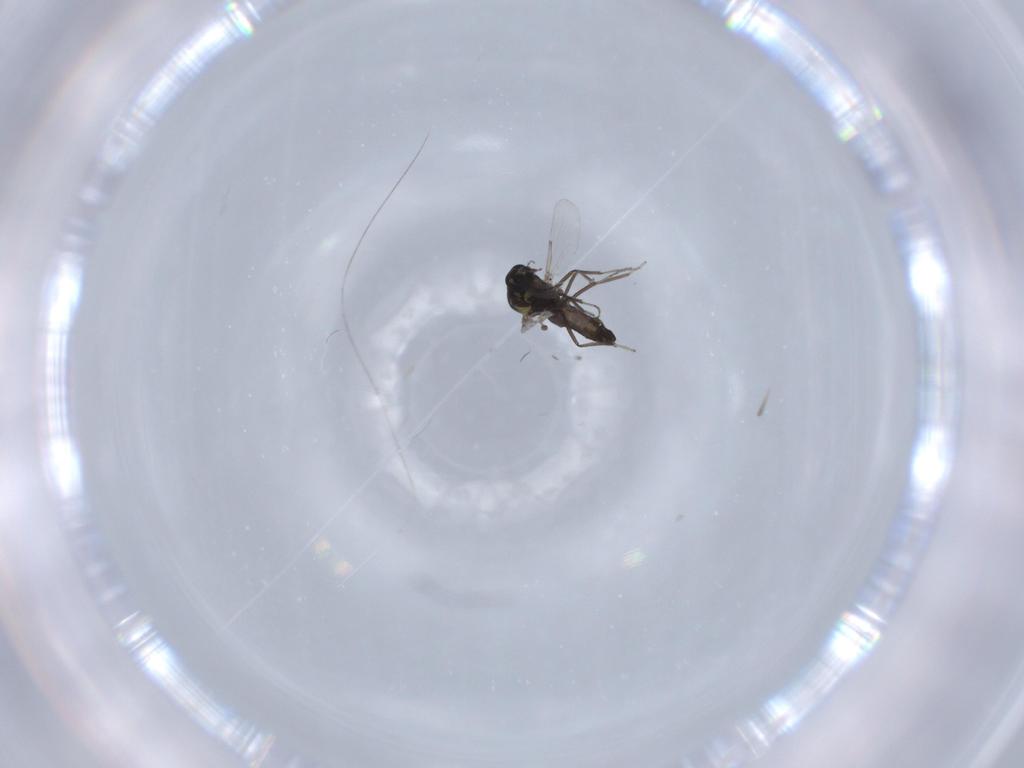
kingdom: Animalia
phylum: Arthropoda
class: Insecta
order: Diptera
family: Ceratopogonidae
